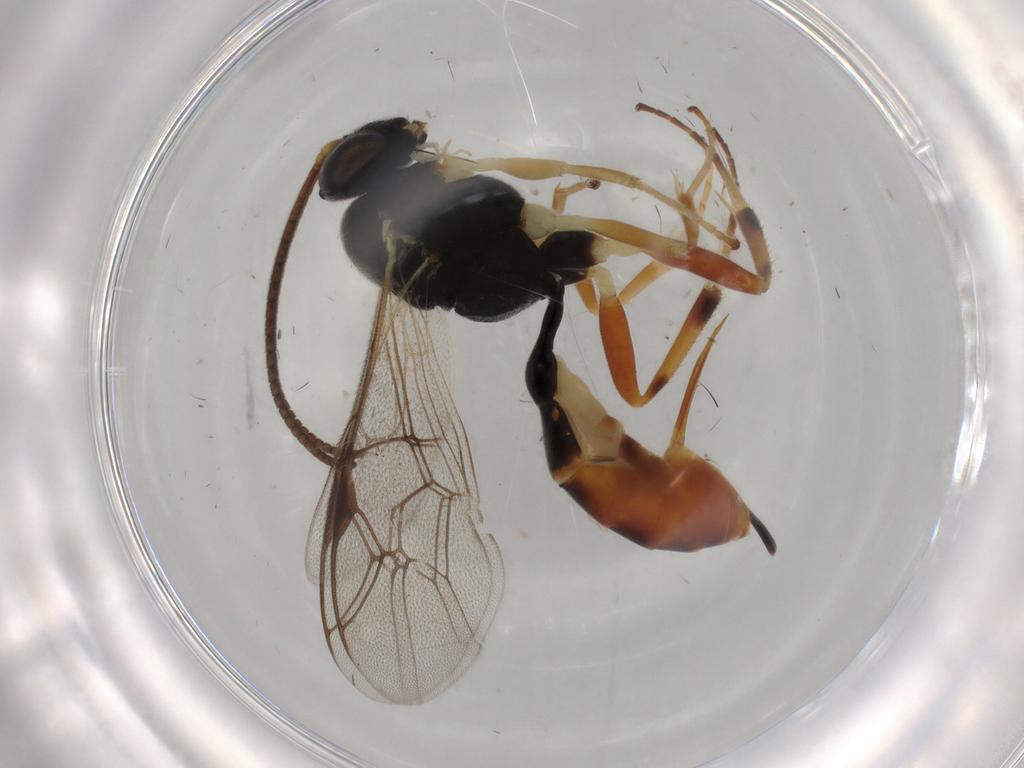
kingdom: Animalia
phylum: Arthropoda
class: Insecta
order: Hymenoptera
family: Ichneumonidae
